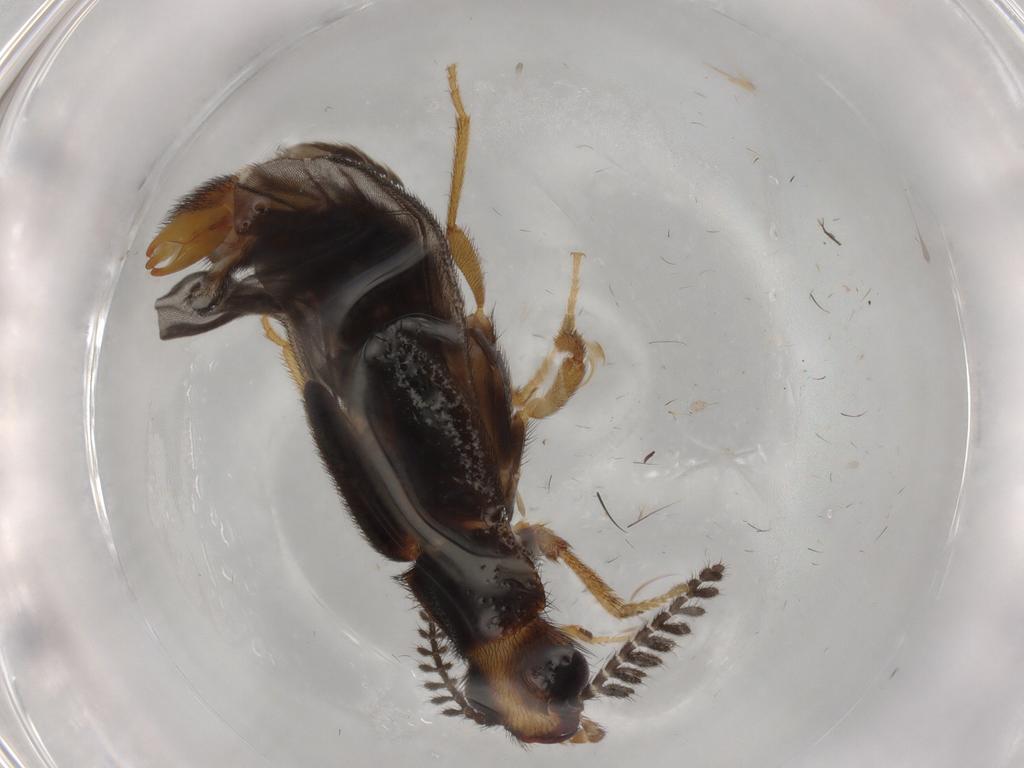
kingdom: Animalia
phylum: Arthropoda
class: Insecta
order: Coleoptera
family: Phengodidae
